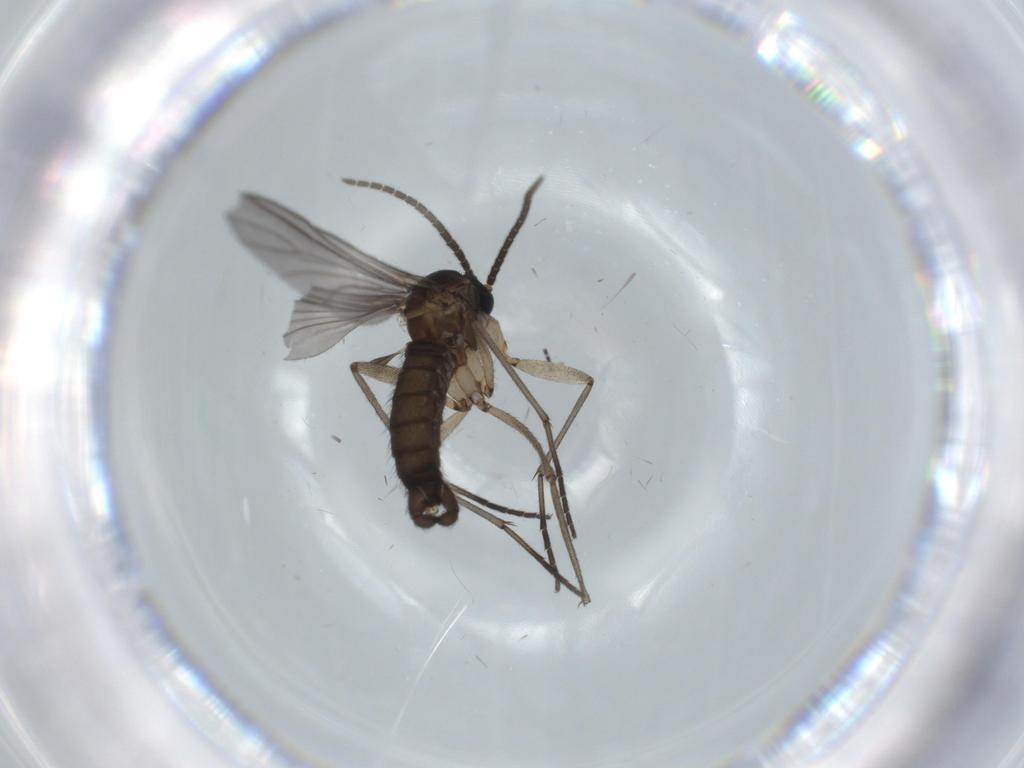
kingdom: Animalia
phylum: Arthropoda
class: Insecta
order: Diptera
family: Sciaridae
